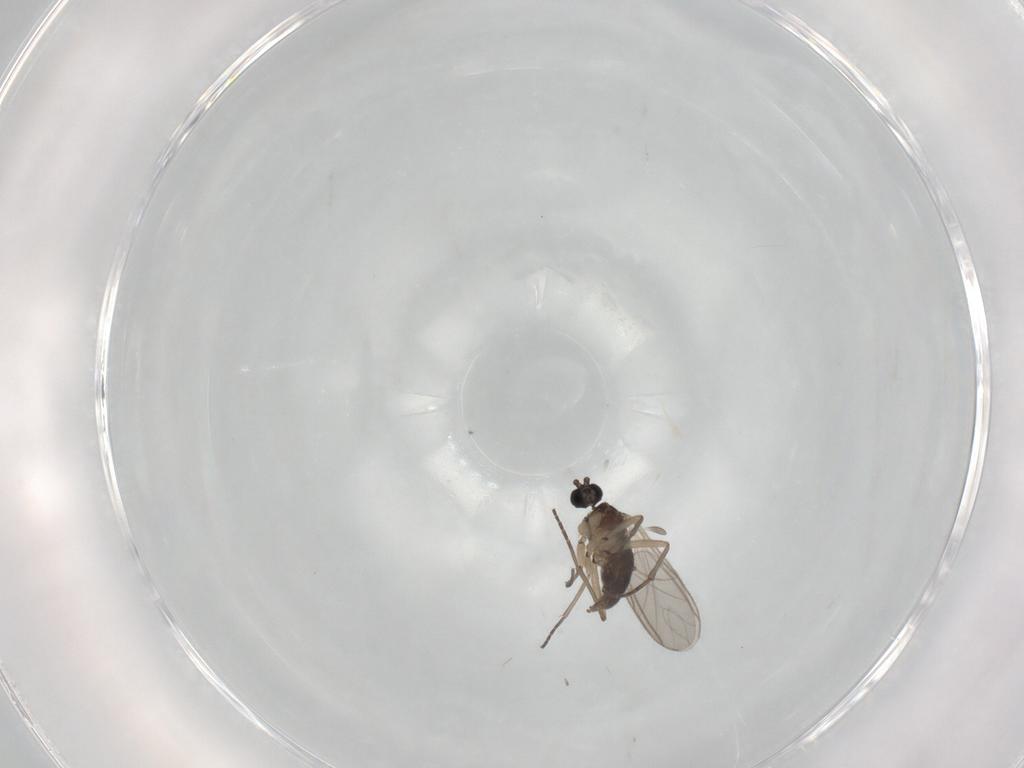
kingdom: Animalia
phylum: Arthropoda
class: Insecta
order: Diptera
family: Sciaridae
